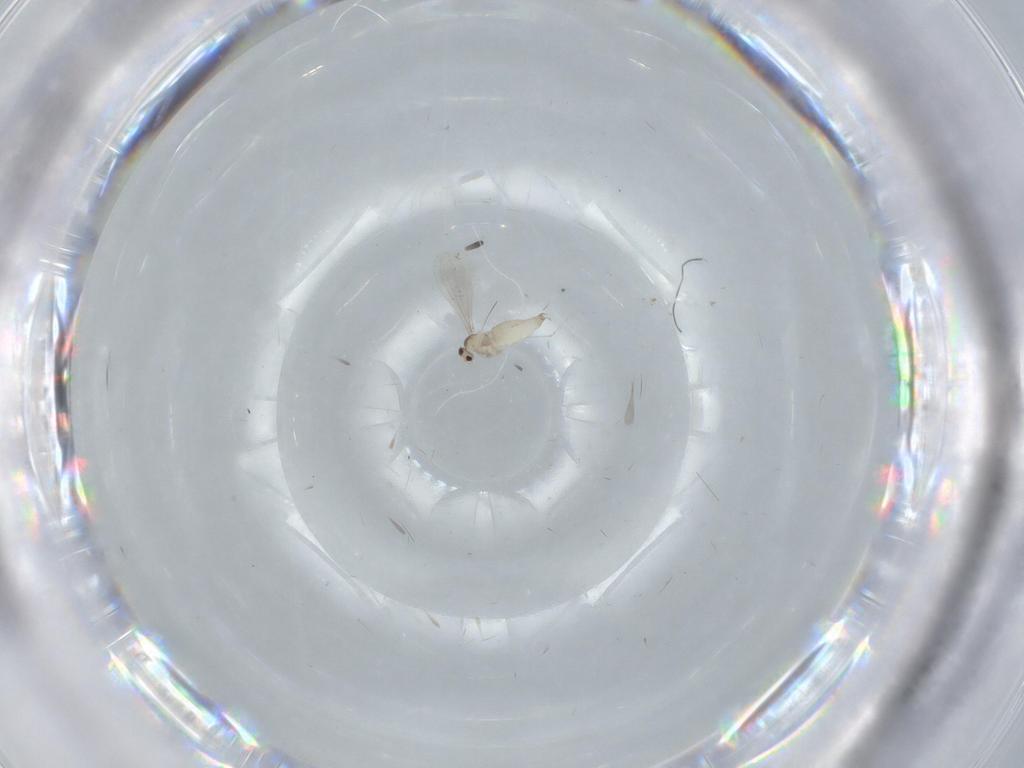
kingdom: Animalia
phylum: Arthropoda
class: Insecta
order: Diptera
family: Cecidomyiidae
